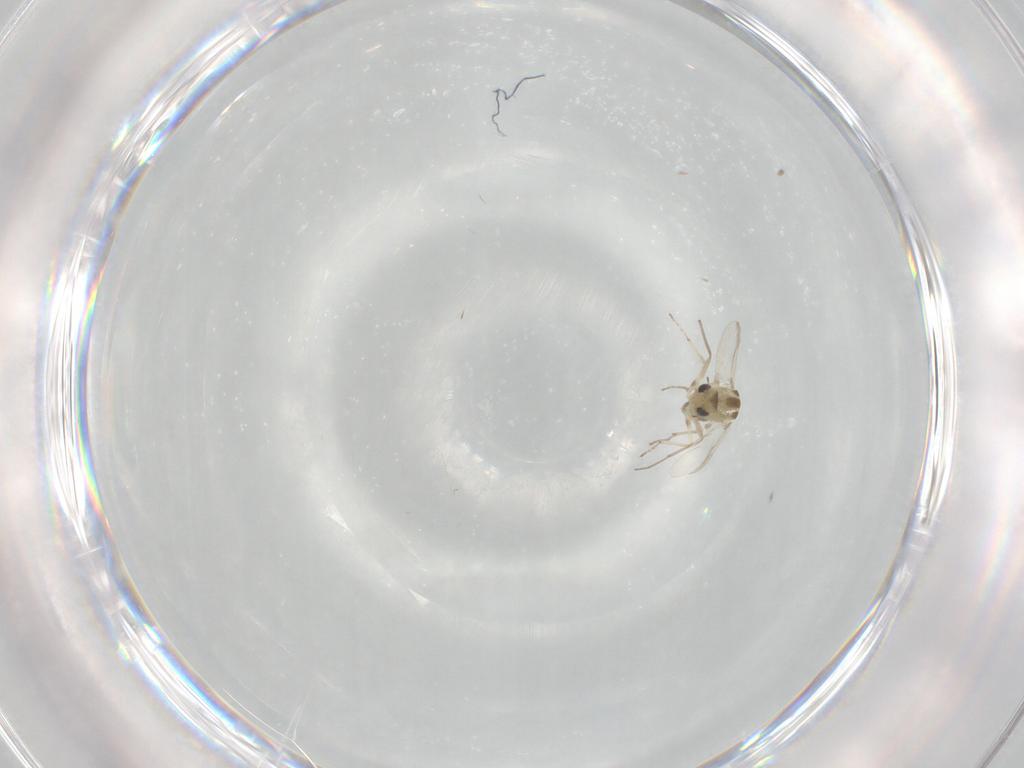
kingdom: Animalia
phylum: Arthropoda
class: Insecta
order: Diptera
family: Chironomidae
